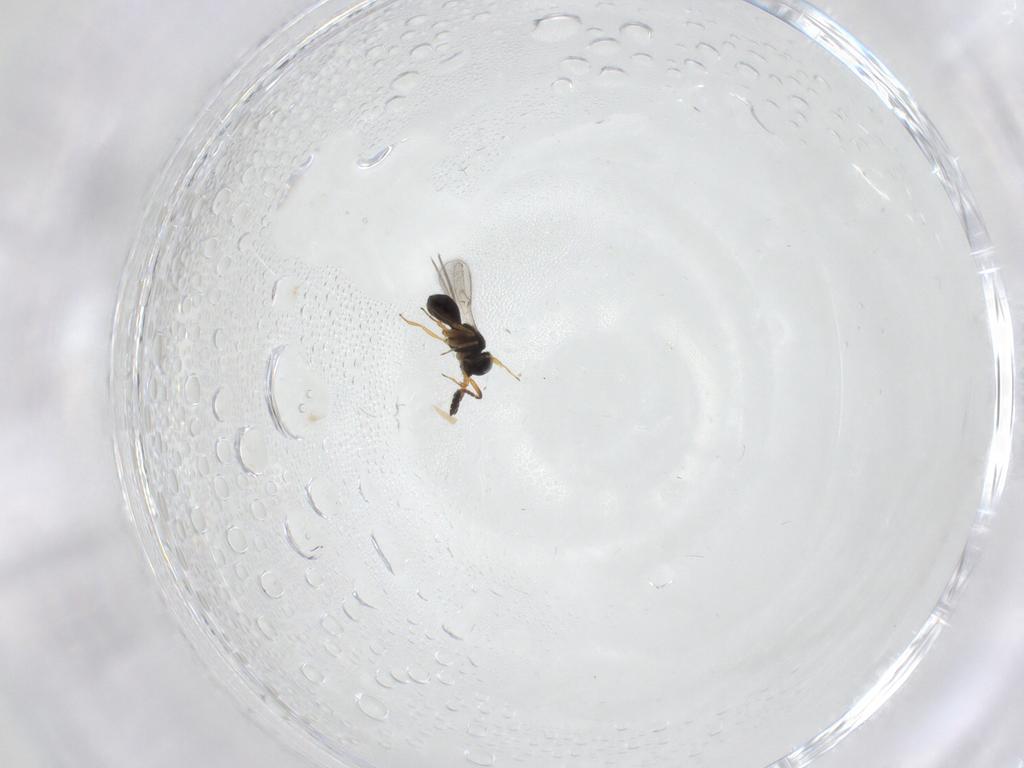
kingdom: Animalia
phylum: Arthropoda
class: Insecta
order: Hymenoptera
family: Scelionidae
